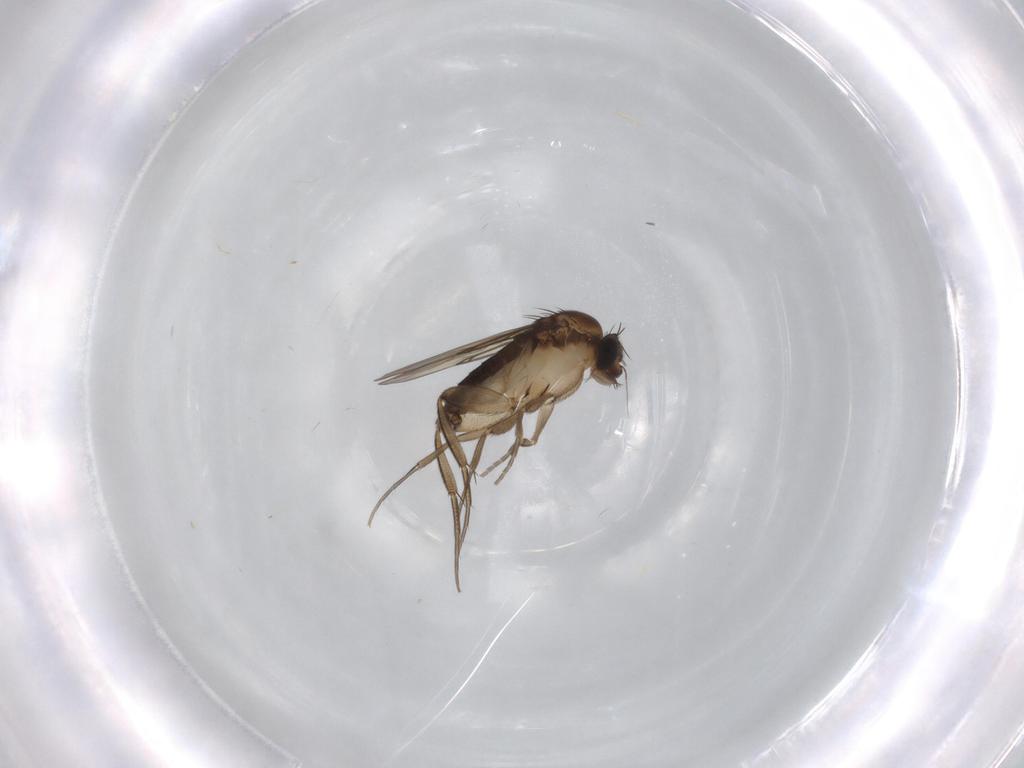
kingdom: Animalia
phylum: Arthropoda
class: Insecta
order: Diptera
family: Phoridae
